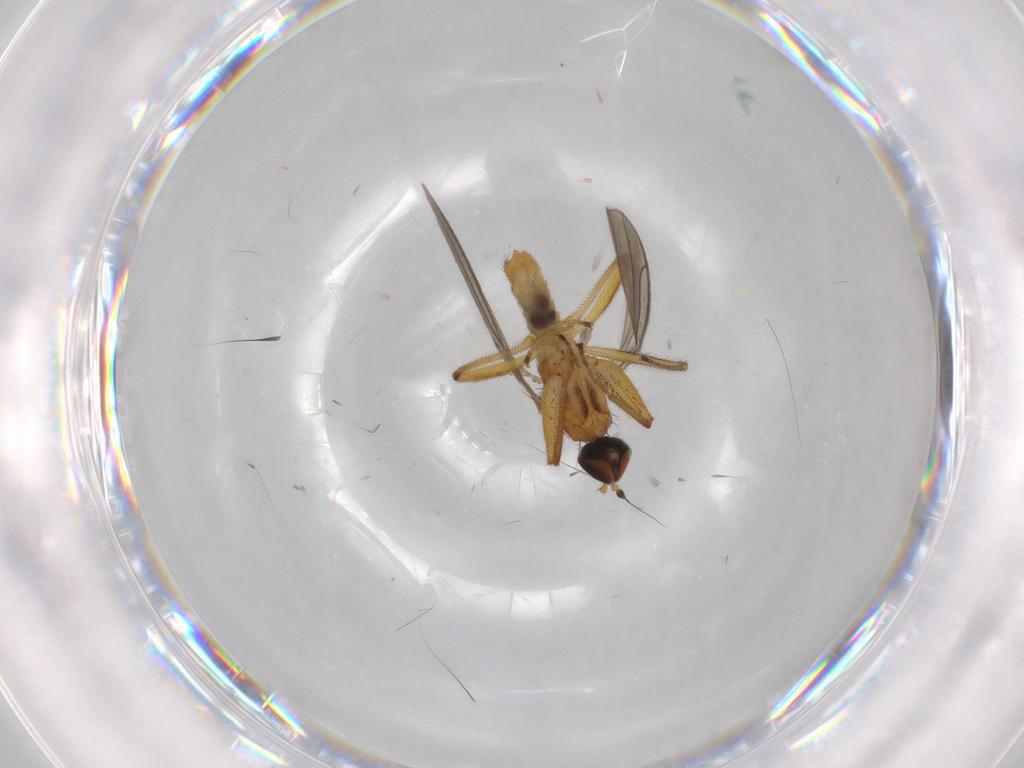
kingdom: Animalia
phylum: Arthropoda
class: Insecta
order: Diptera
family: Empididae
